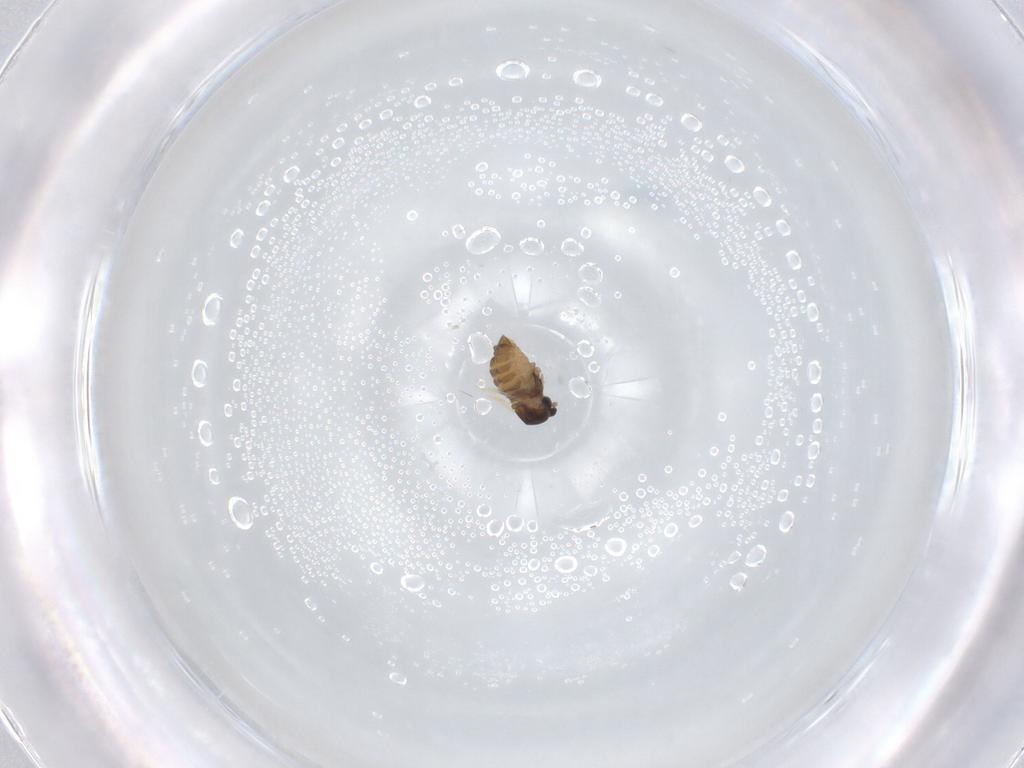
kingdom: Animalia
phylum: Arthropoda
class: Insecta
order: Diptera
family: Cecidomyiidae
